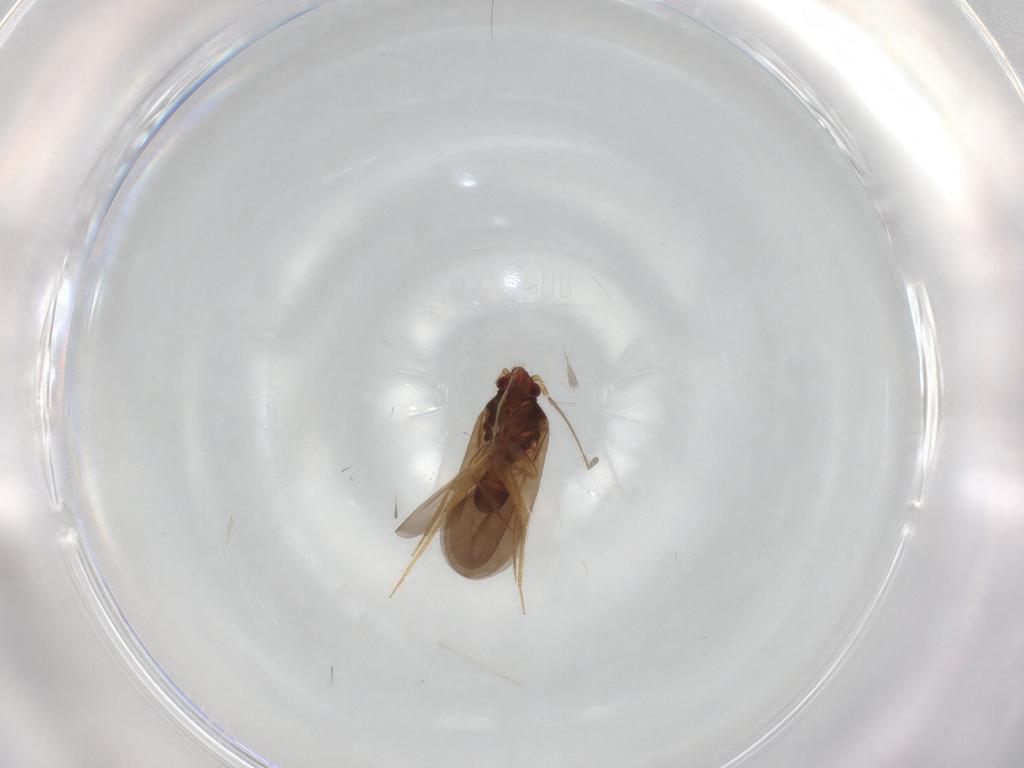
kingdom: Animalia
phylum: Arthropoda
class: Insecta
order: Hemiptera
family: Ceratocombidae
